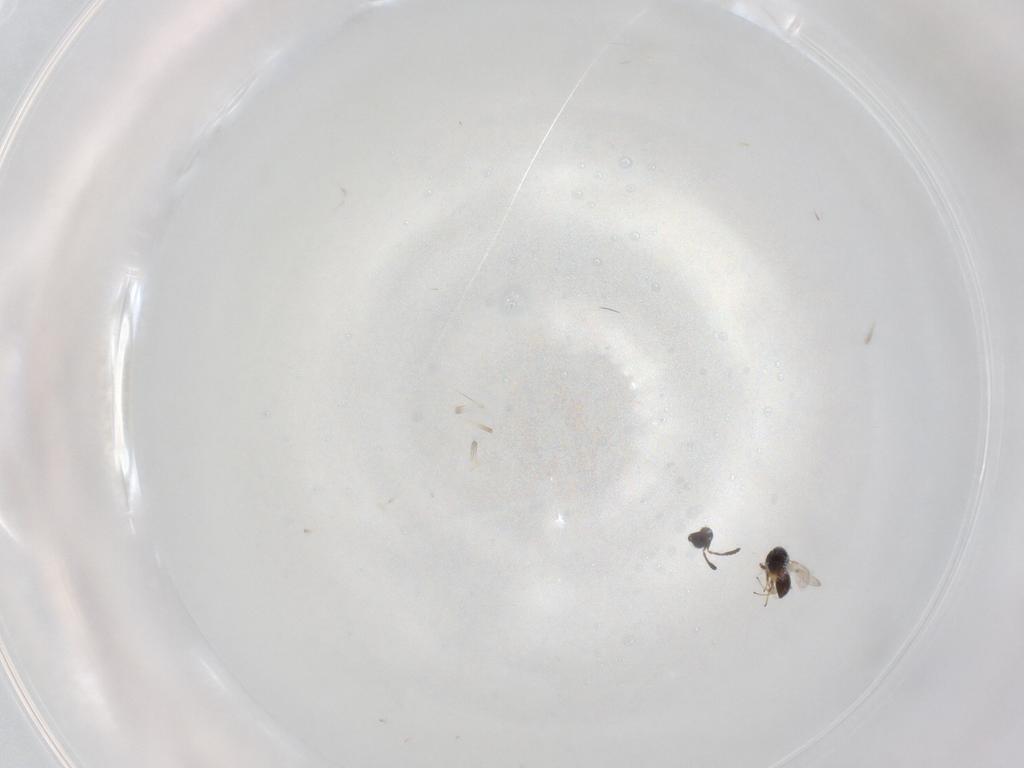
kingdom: Animalia
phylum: Arthropoda
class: Insecta
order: Hymenoptera
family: Scelionidae
